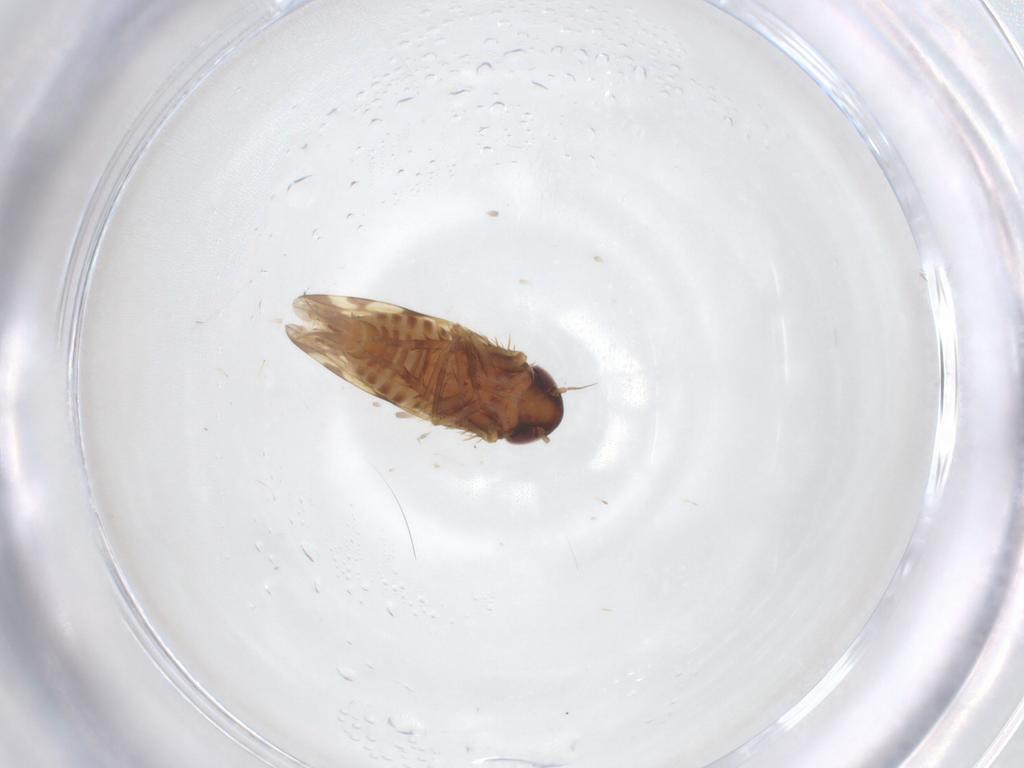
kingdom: Animalia
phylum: Arthropoda
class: Insecta
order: Hemiptera
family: Cicadellidae
